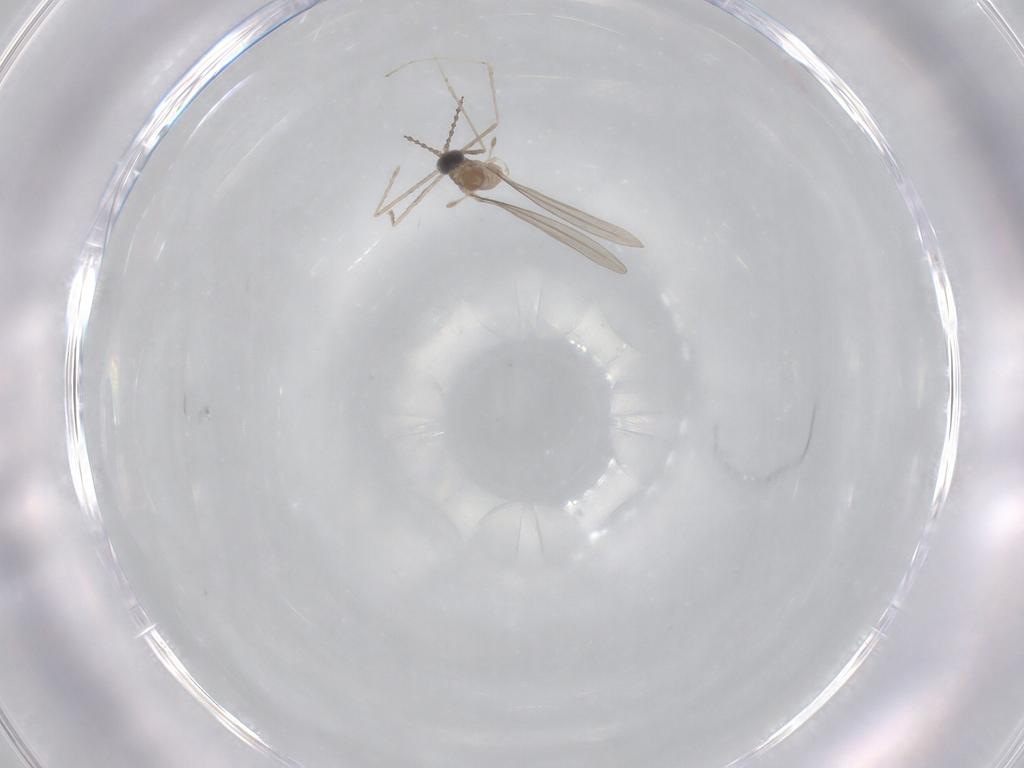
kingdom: Animalia
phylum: Arthropoda
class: Insecta
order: Diptera
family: Cecidomyiidae
